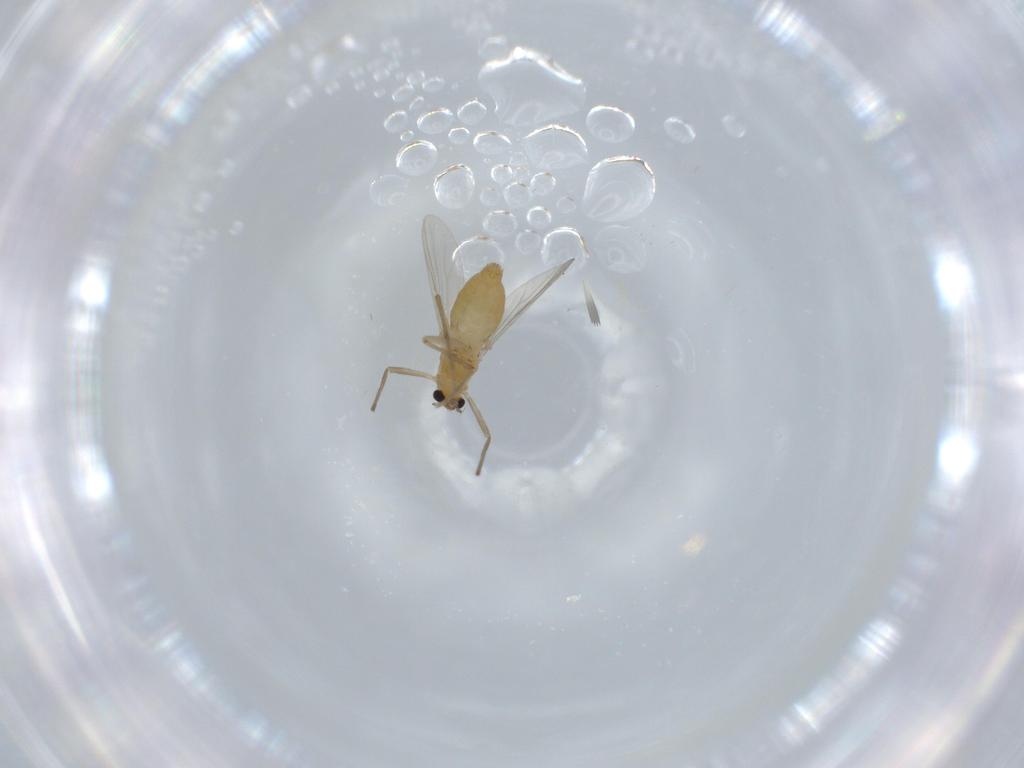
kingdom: Animalia
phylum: Arthropoda
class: Insecta
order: Diptera
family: Chironomidae
